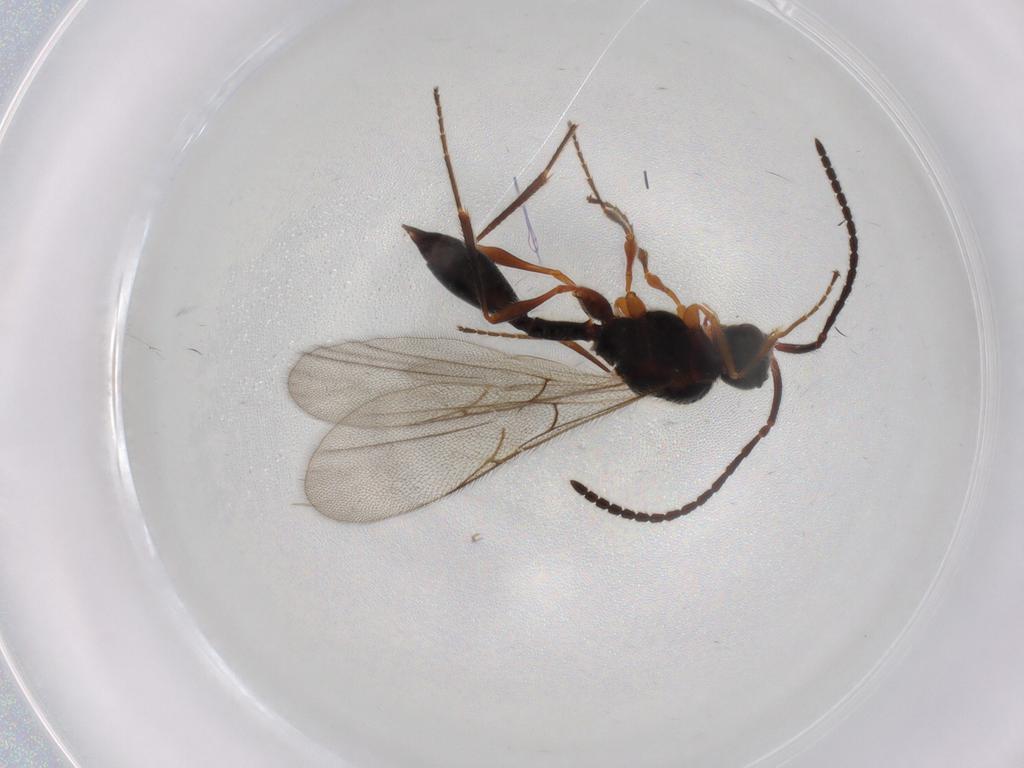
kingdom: Animalia
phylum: Arthropoda
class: Insecta
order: Hymenoptera
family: Diapriidae
